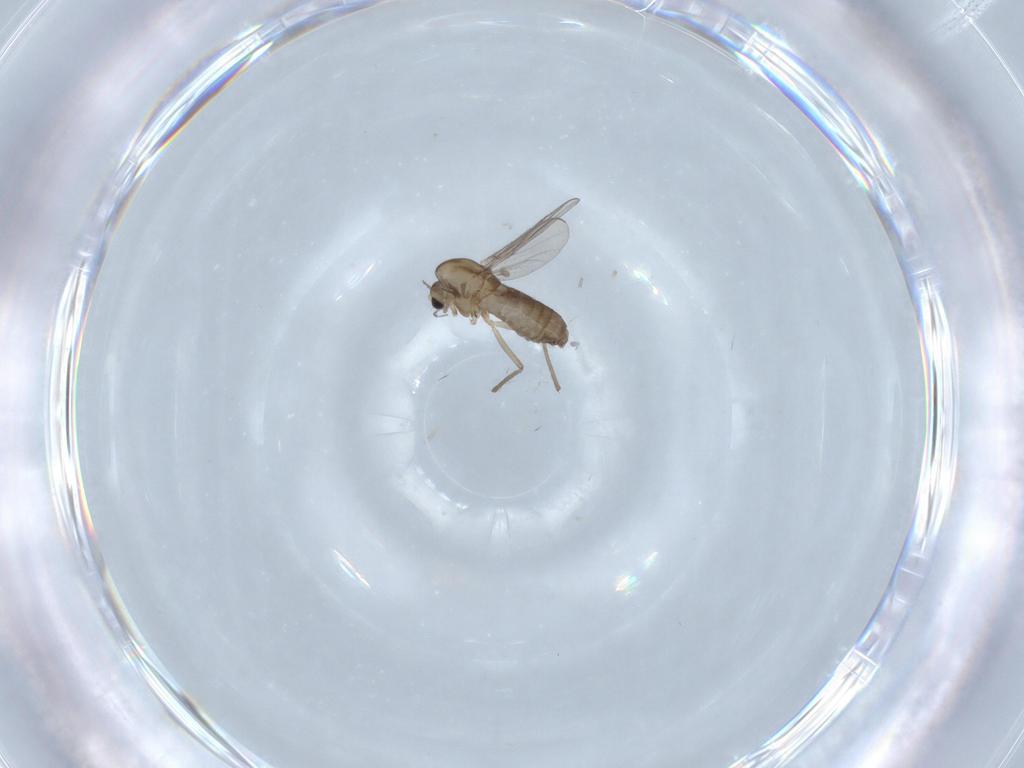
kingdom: Animalia
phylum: Arthropoda
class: Insecta
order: Diptera
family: Chironomidae
